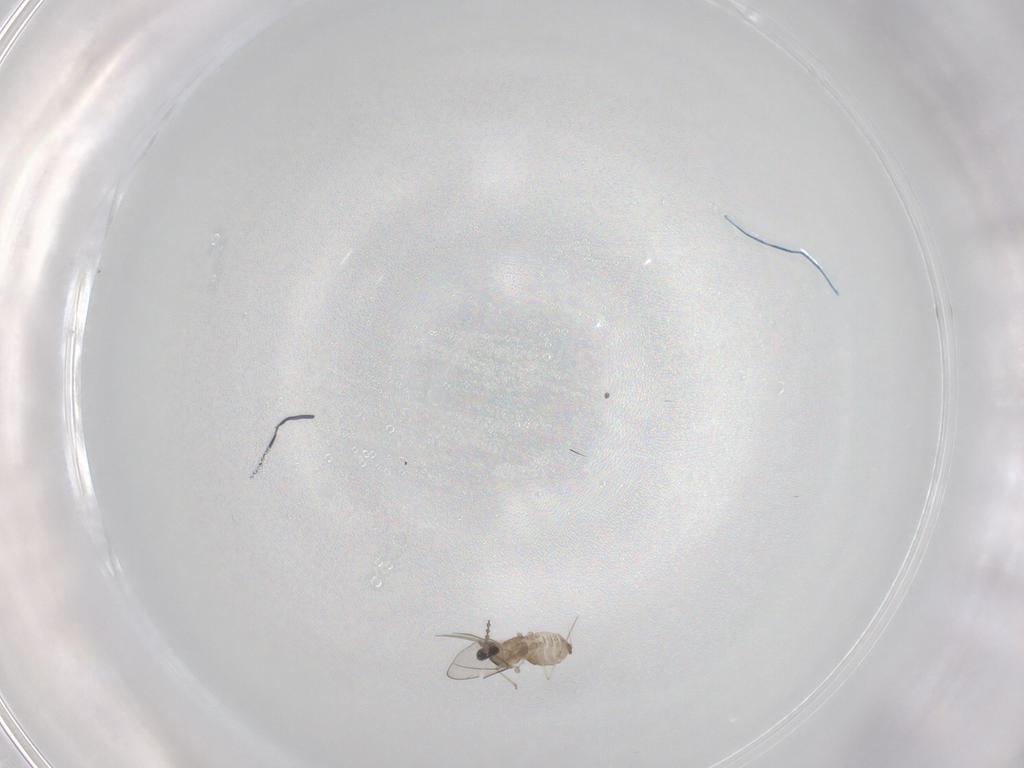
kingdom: Animalia
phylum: Arthropoda
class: Insecta
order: Diptera
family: Cecidomyiidae
